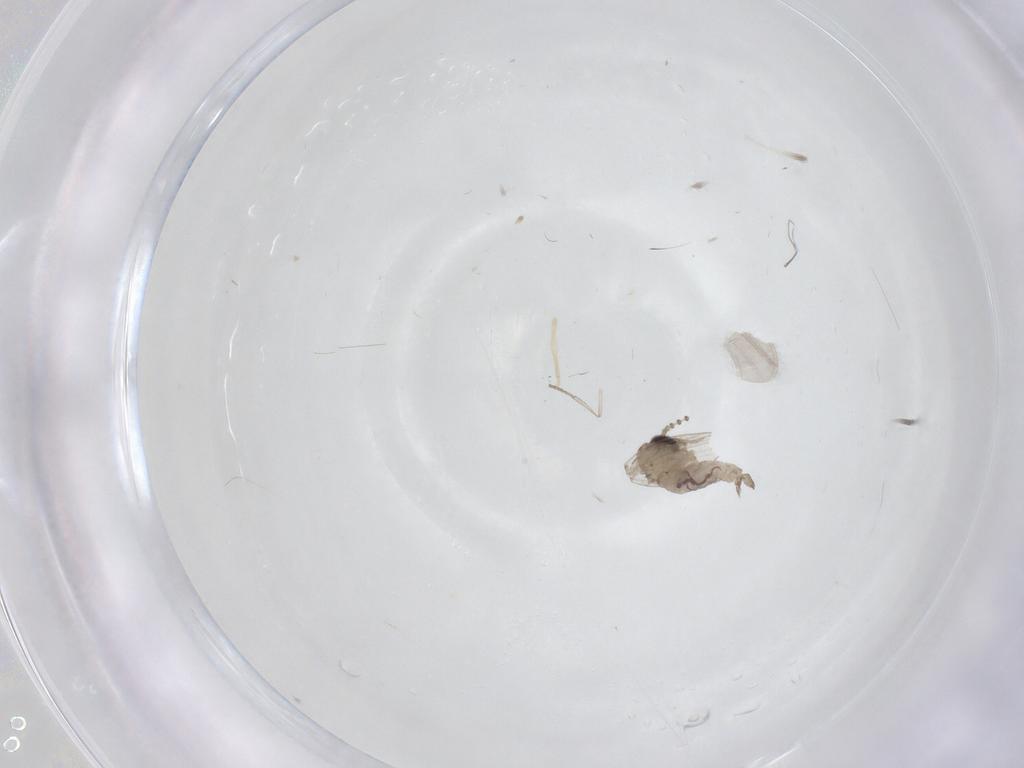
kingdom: Animalia
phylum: Arthropoda
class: Insecta
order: Diptera
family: Psychodidae
